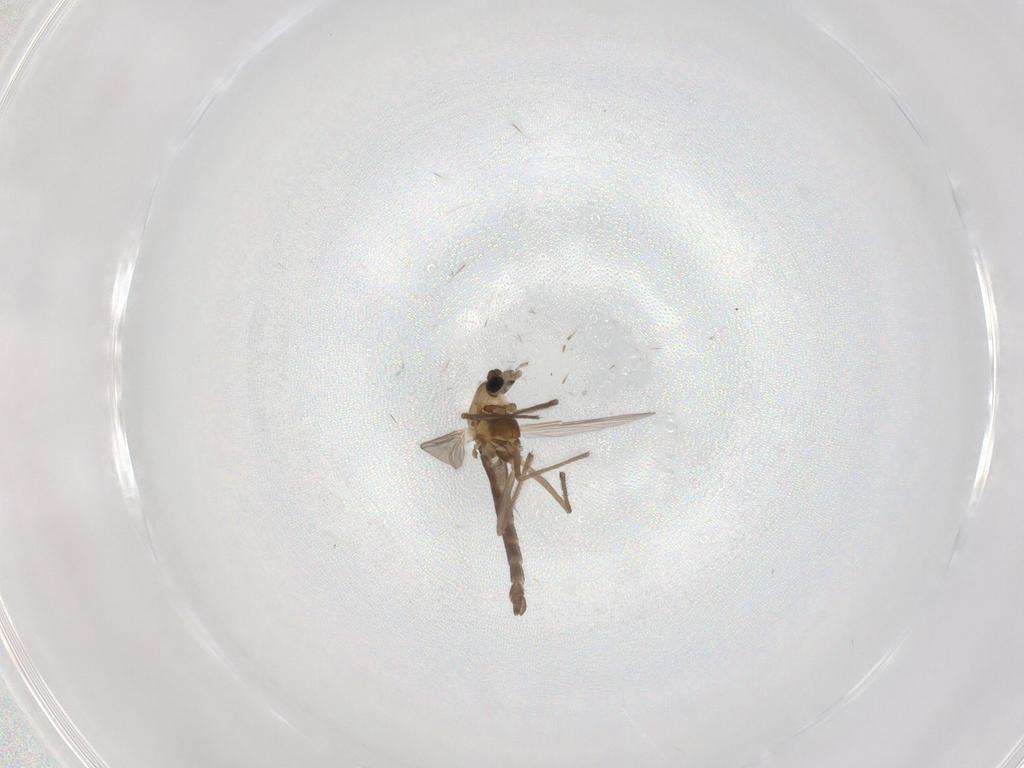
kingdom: Animalia
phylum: Arthropoda
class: Insecta
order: Diptera
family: Chironomidae
